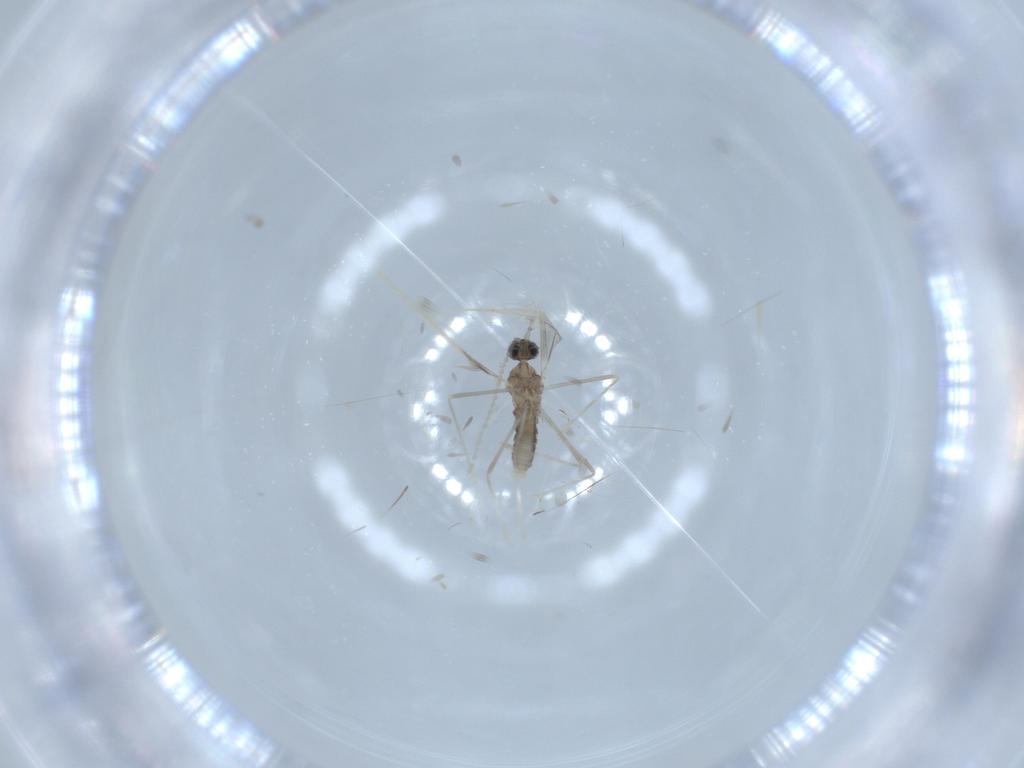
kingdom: Animalia
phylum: Arthropoda
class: Insecta
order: Diptera
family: Cecidomyiidae
